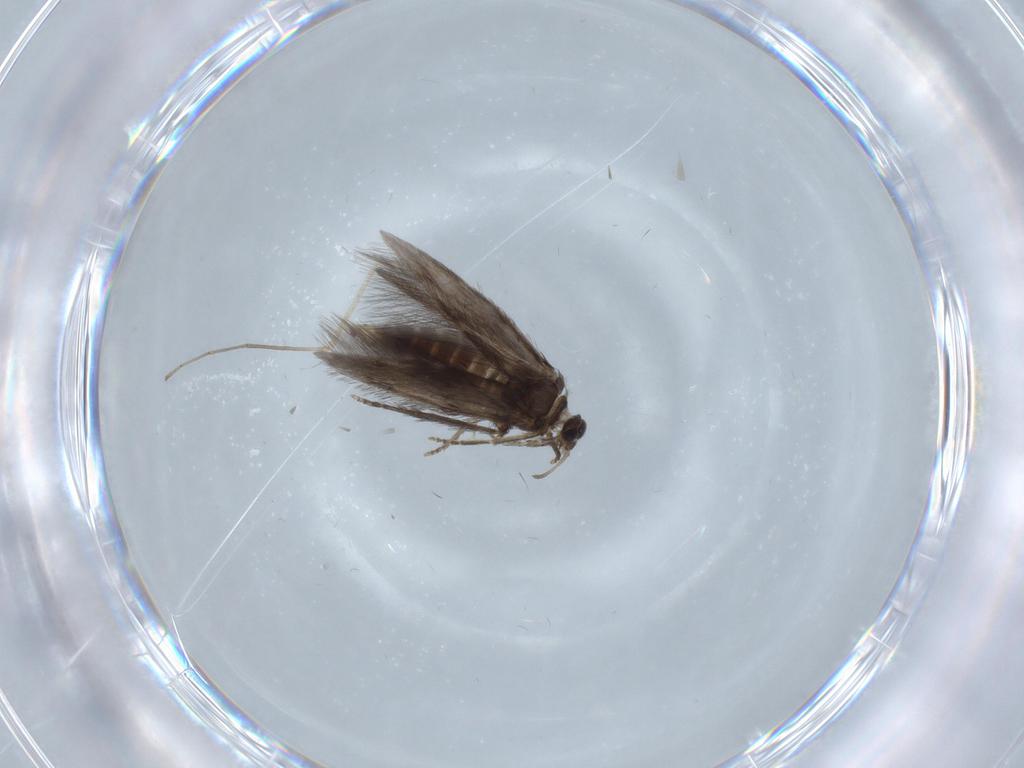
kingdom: Animalia
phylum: Arthropoda
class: Insecta
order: Trichoptera
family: Hydroptilidae
